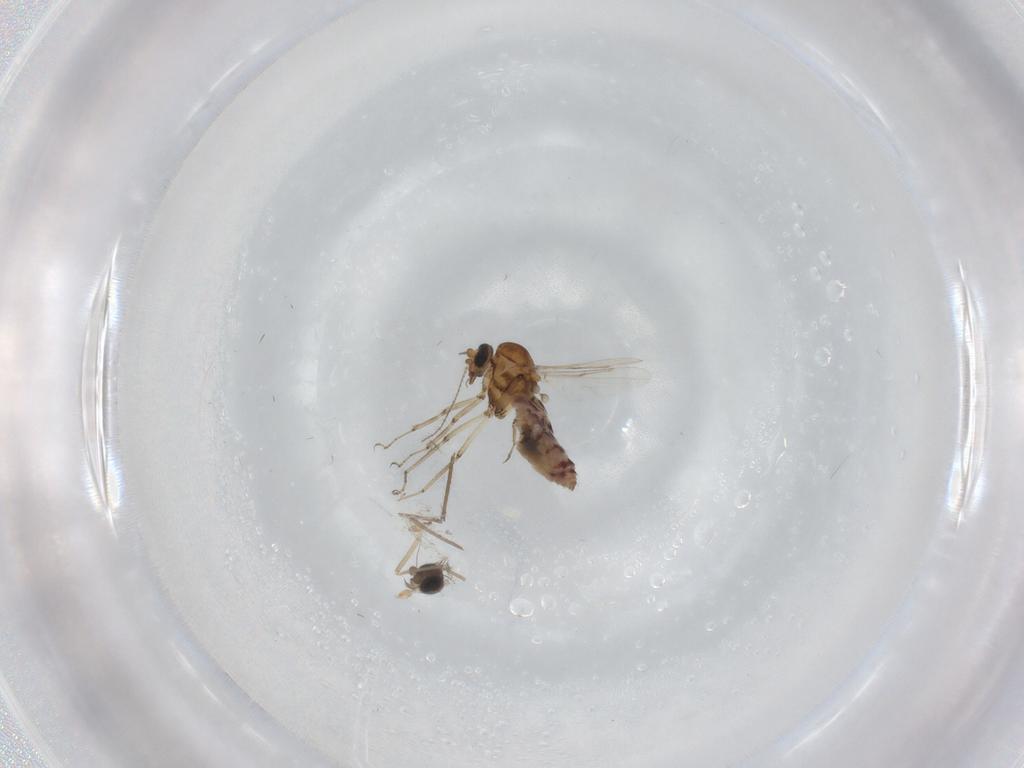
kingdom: Animalia
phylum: Arthropoda
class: Insecta
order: Diptera
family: Chironomidae
